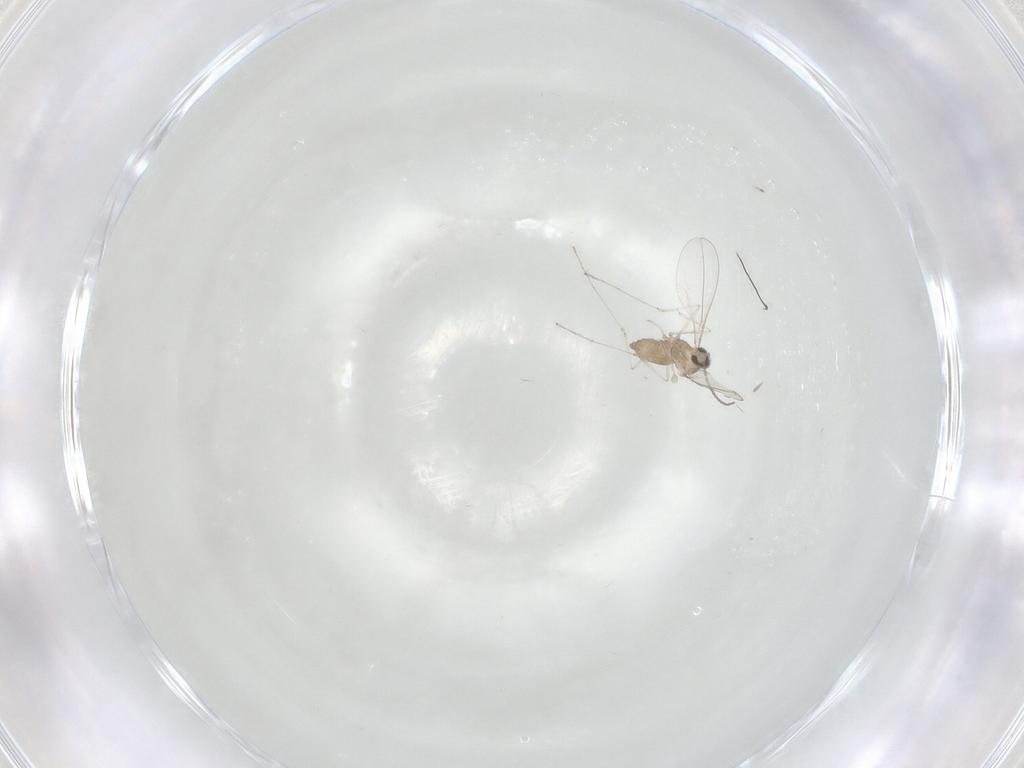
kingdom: Animalia
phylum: Arthropoda
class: Insecta
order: Diptera
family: Cecidomyiidae
